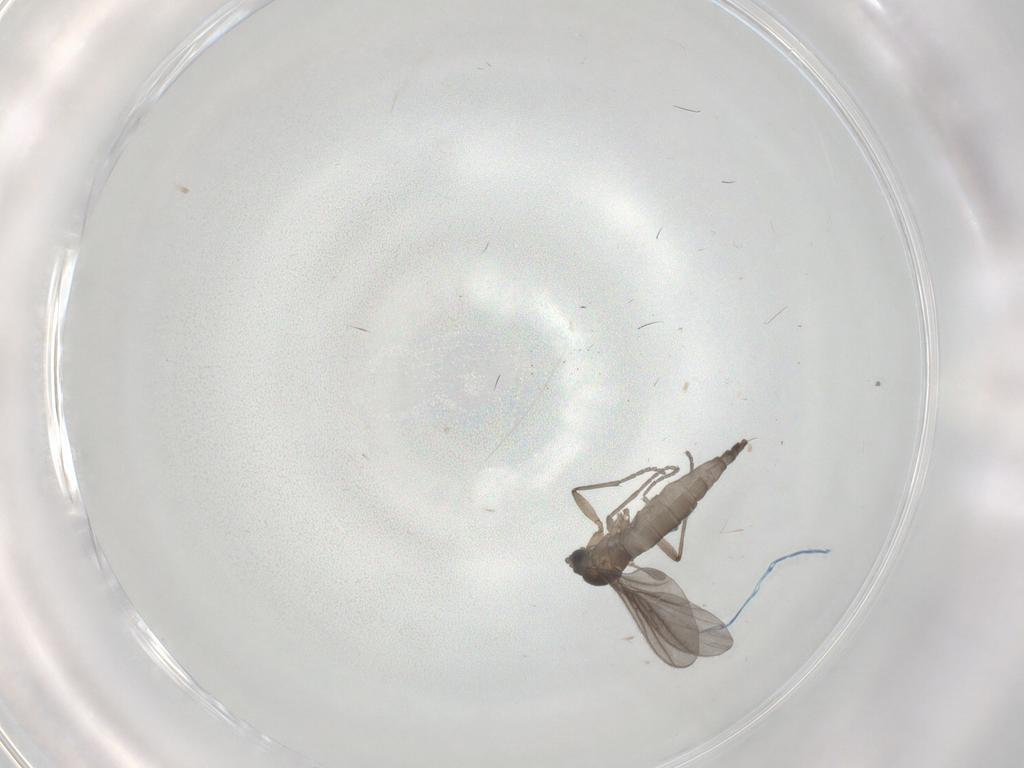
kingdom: Animalia
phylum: Arthropoda
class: Insecta
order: Diptera
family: Sciaridae
